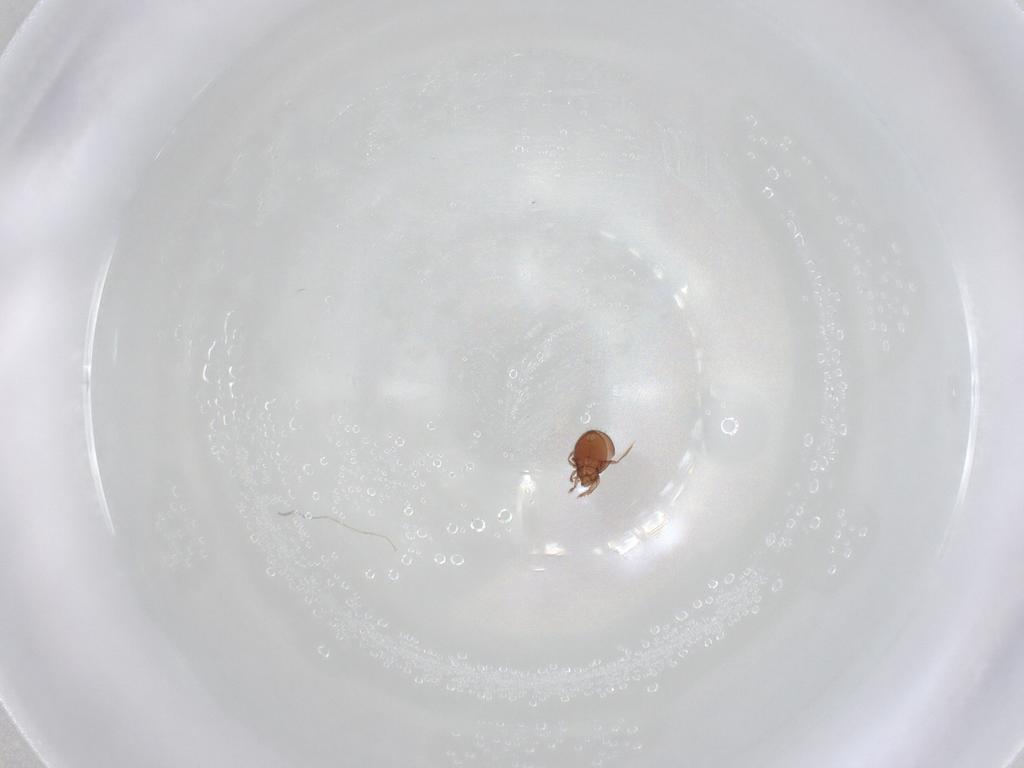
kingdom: Animalia
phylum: Arthropoda
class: Arachnida
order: Sarcoptiformes
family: Oribatulidae
